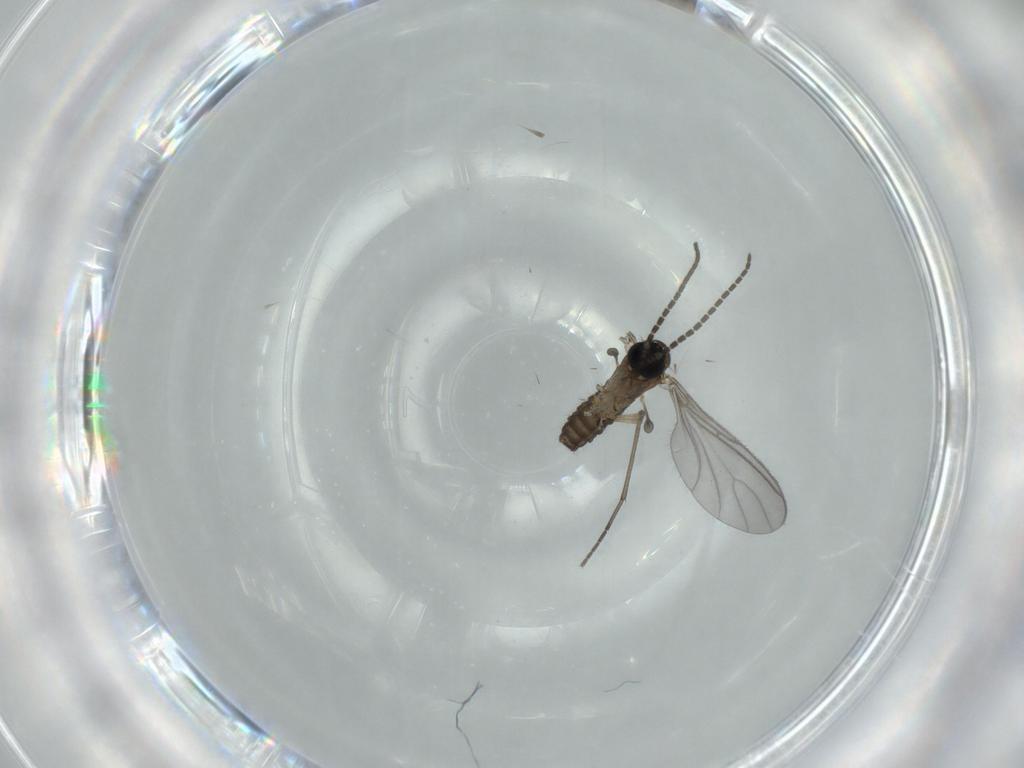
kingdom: Animalia
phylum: Arthropoda
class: Insecta
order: Diptera
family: Sciaridae
